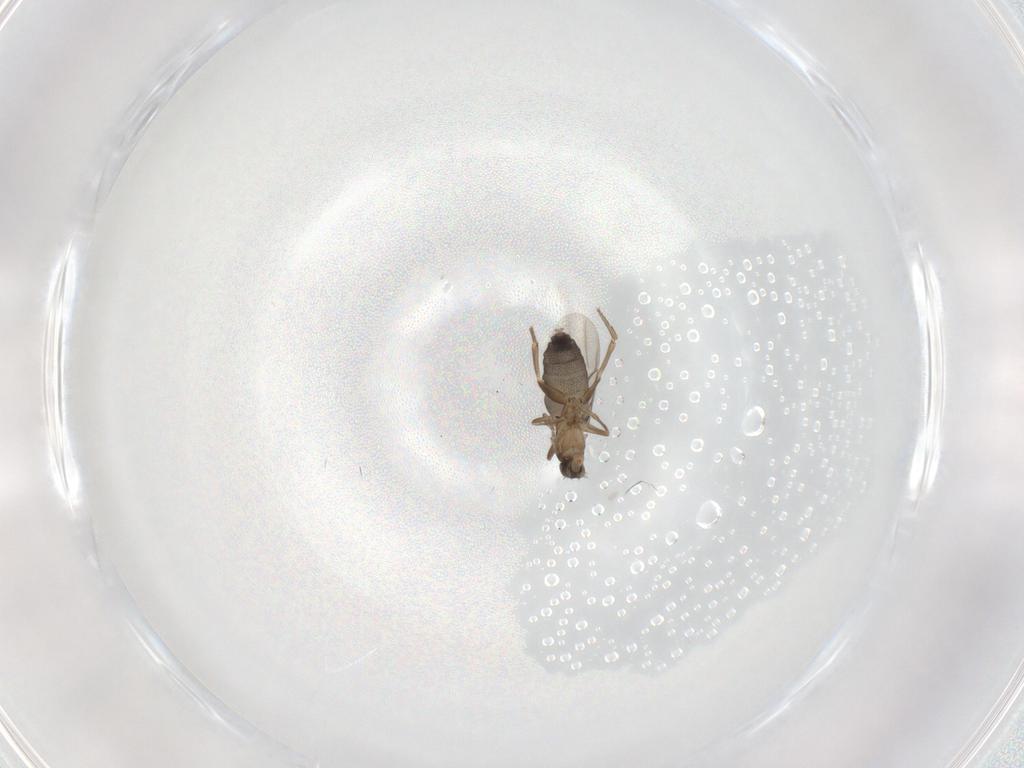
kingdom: Animalia
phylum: Arthropoda
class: Insecta
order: Diptera
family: Phoridae
